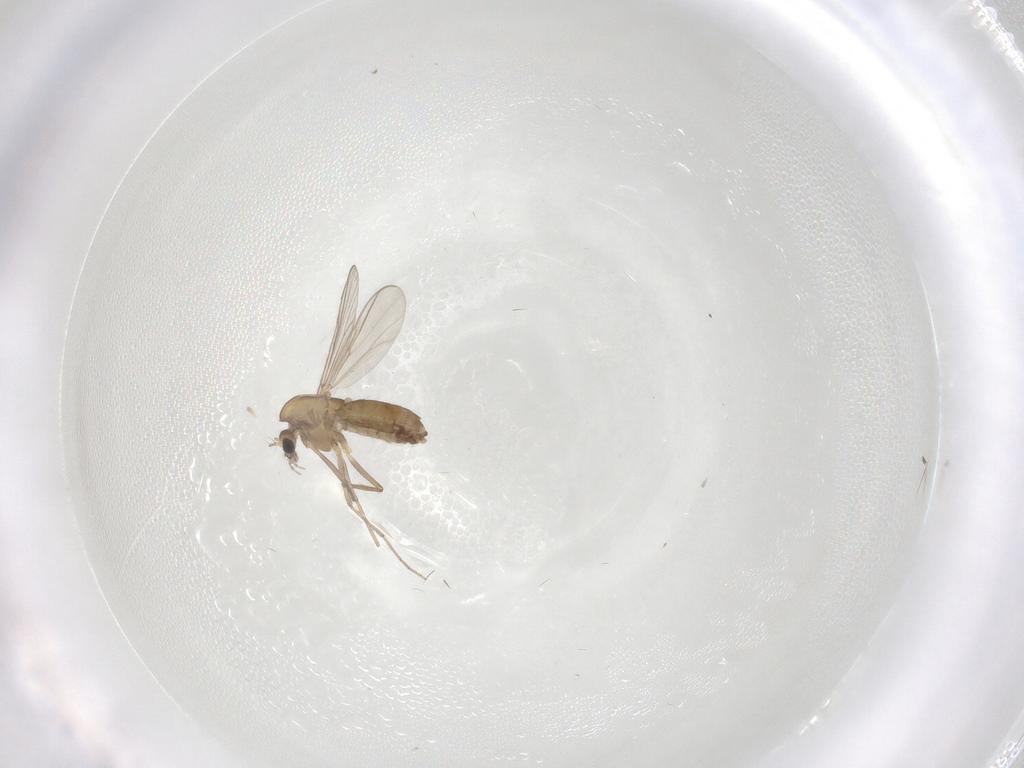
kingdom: Animalia
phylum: Arthropoda
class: Insecta
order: Diptera
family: Chironomidae
